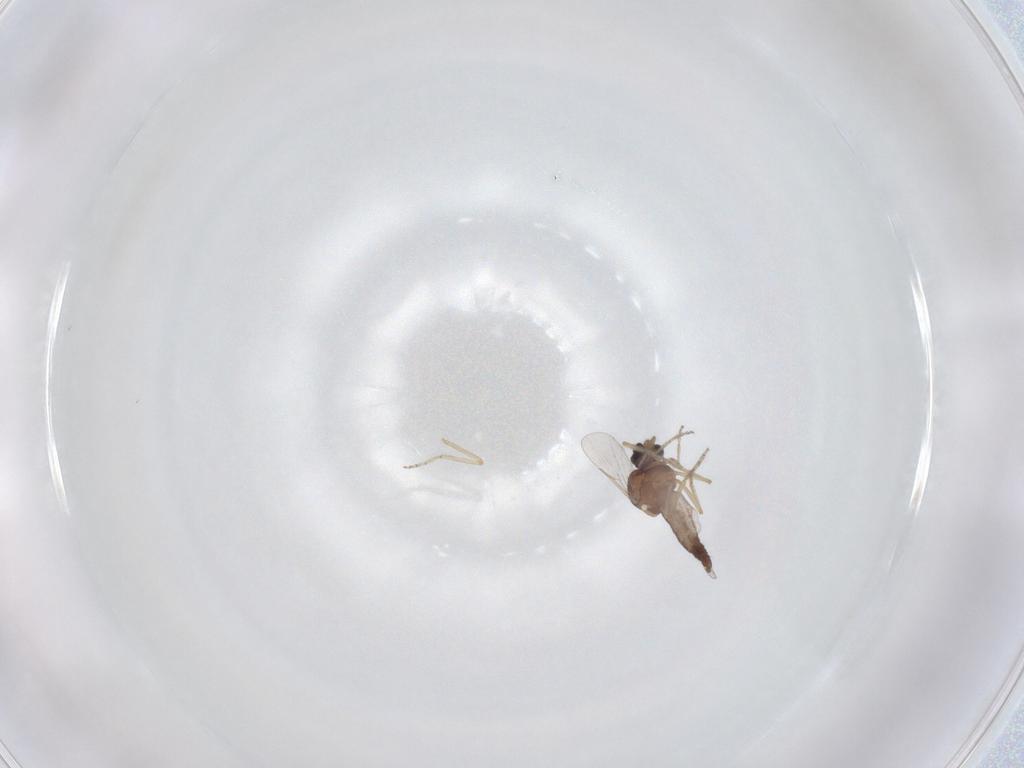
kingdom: Animalia
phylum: Arthropoda
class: Insecta
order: Diptera
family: Ceratopogonidae
